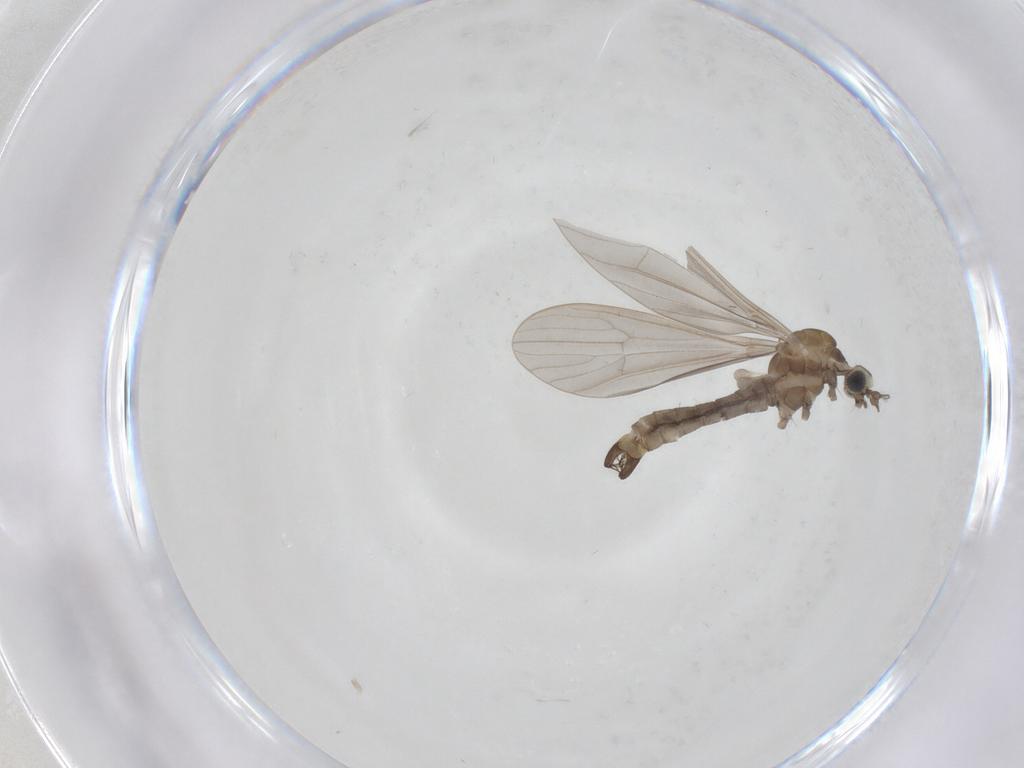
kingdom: Animalia
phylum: Arthropoda
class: Insecta
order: Diptera
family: Limoniidae
